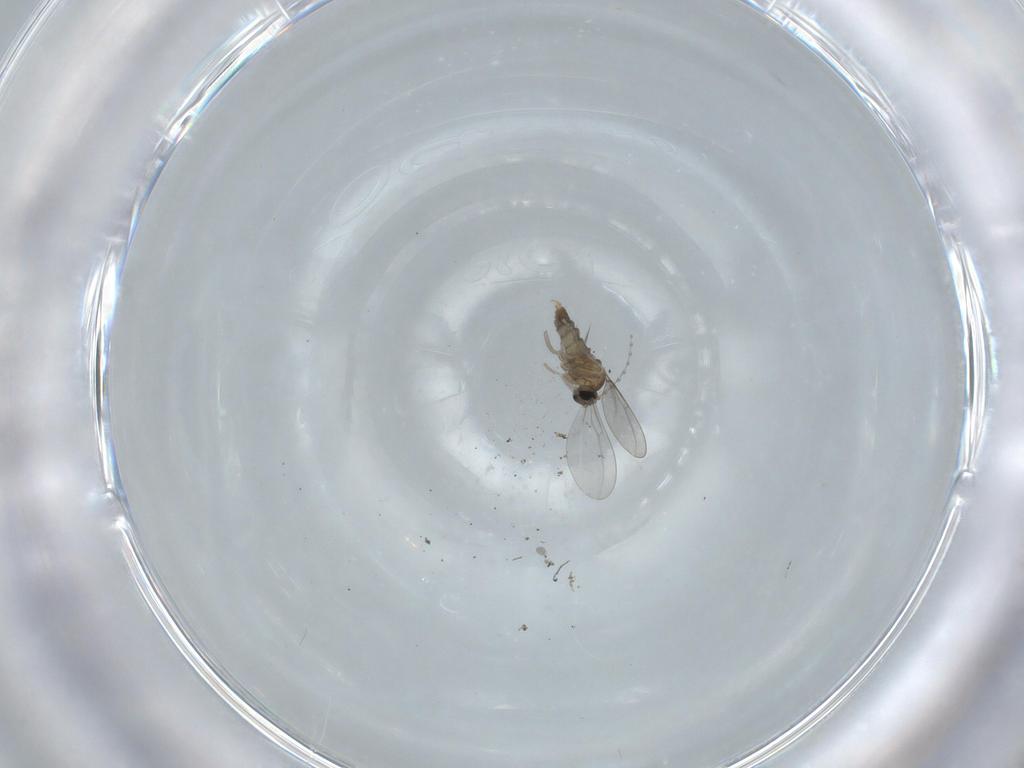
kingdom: Animalia
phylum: Arthropoda
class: Insecta
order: Diptera
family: Cecidomyiidae
